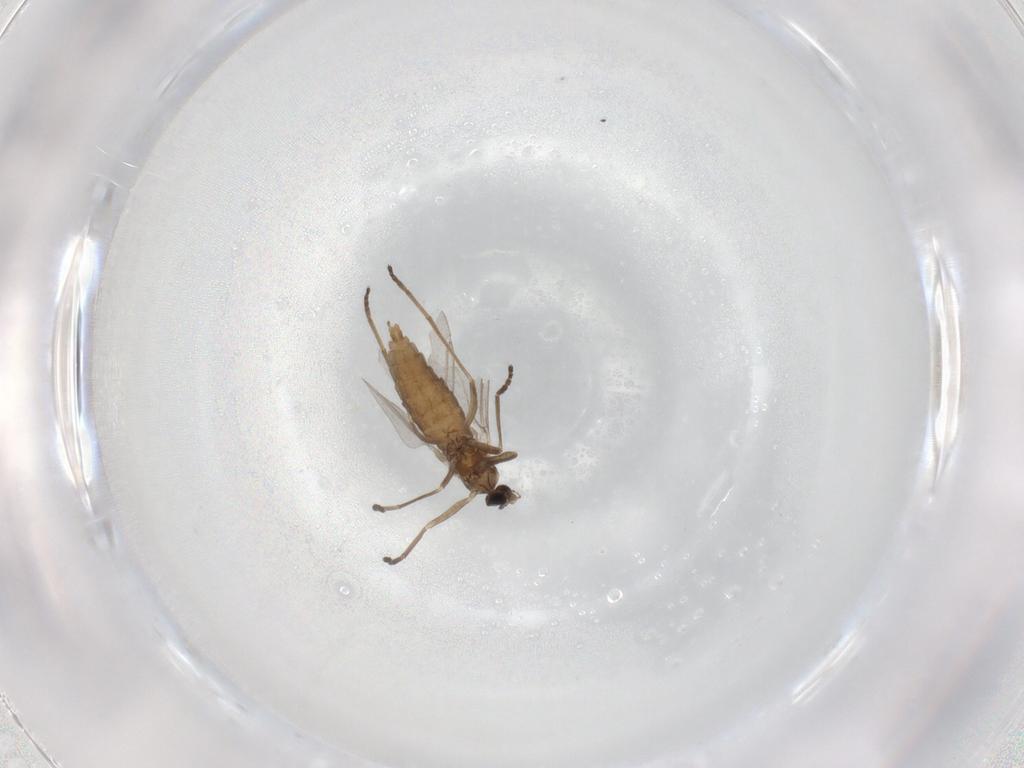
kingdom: Animalia
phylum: Arthropoda
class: Insecta
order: Diptera
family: Cecidomyiidae
